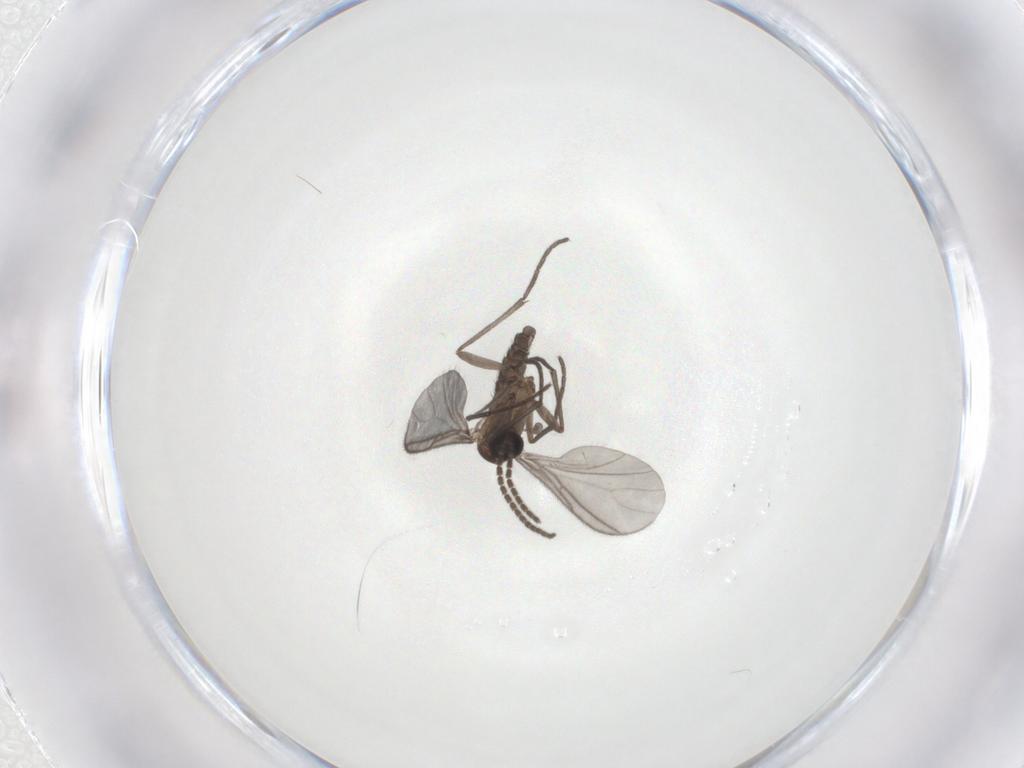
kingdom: Animalia
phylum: Arthropoda
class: Insecta
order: Diptera
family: Sciaridae
